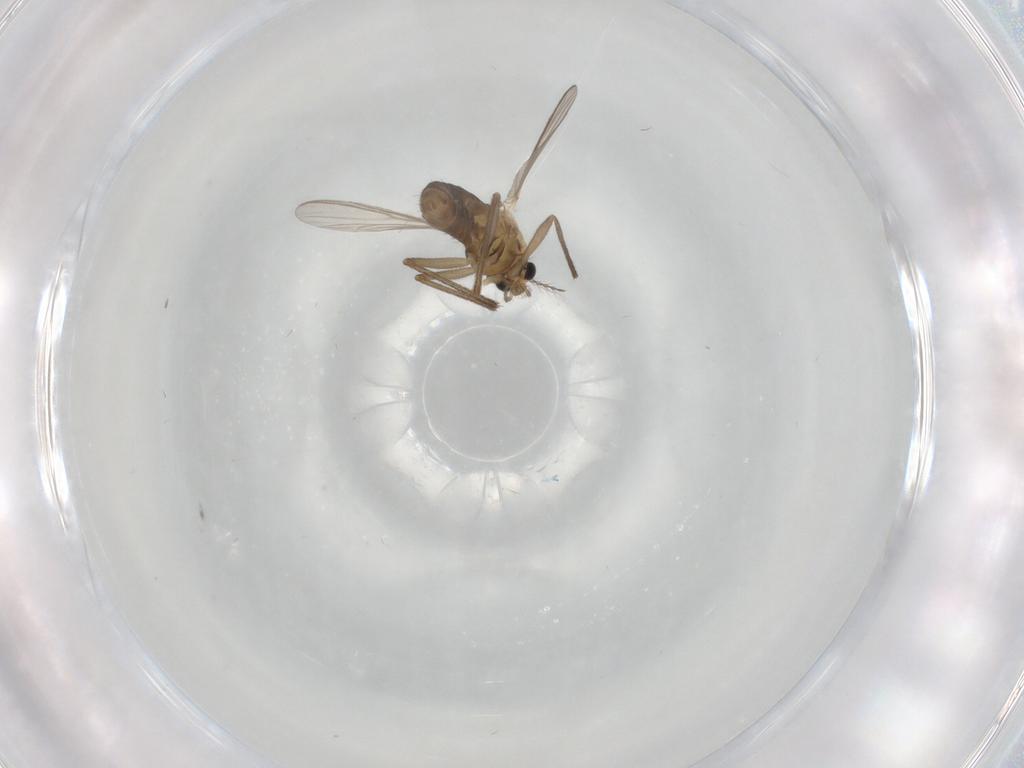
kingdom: Animalia
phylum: Arthropoda
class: Insecta
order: Diptera
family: Chironomidae
